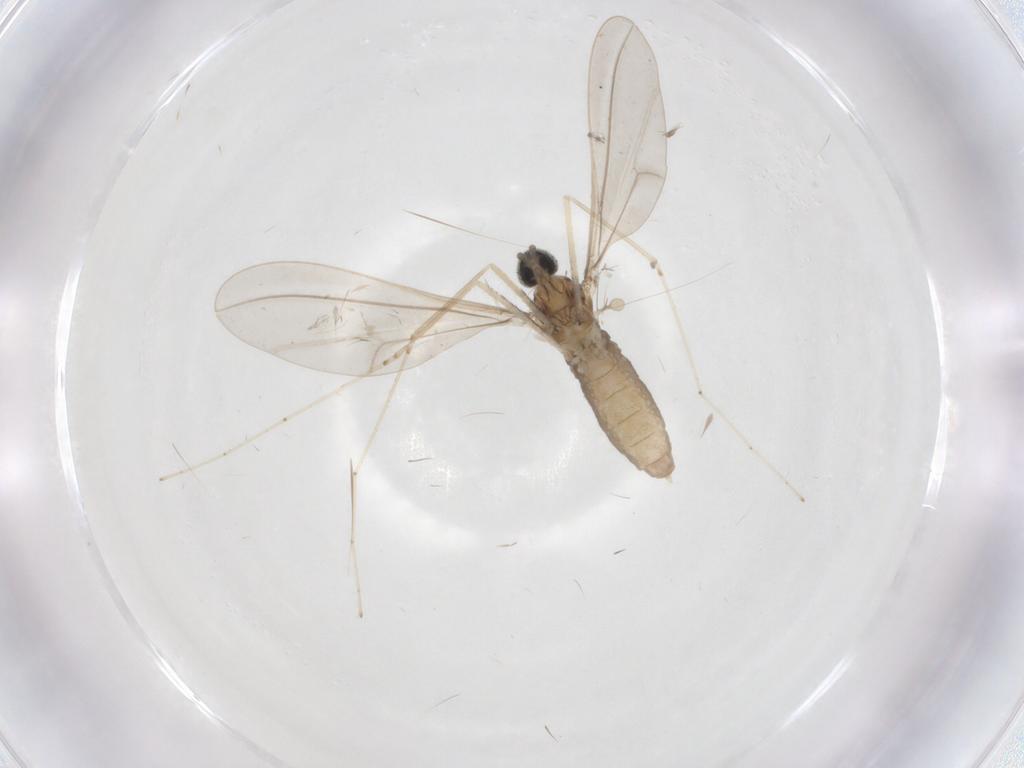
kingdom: Animalia
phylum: Arthropoda
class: Insecta
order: Diptera
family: Cecidomyiidae
